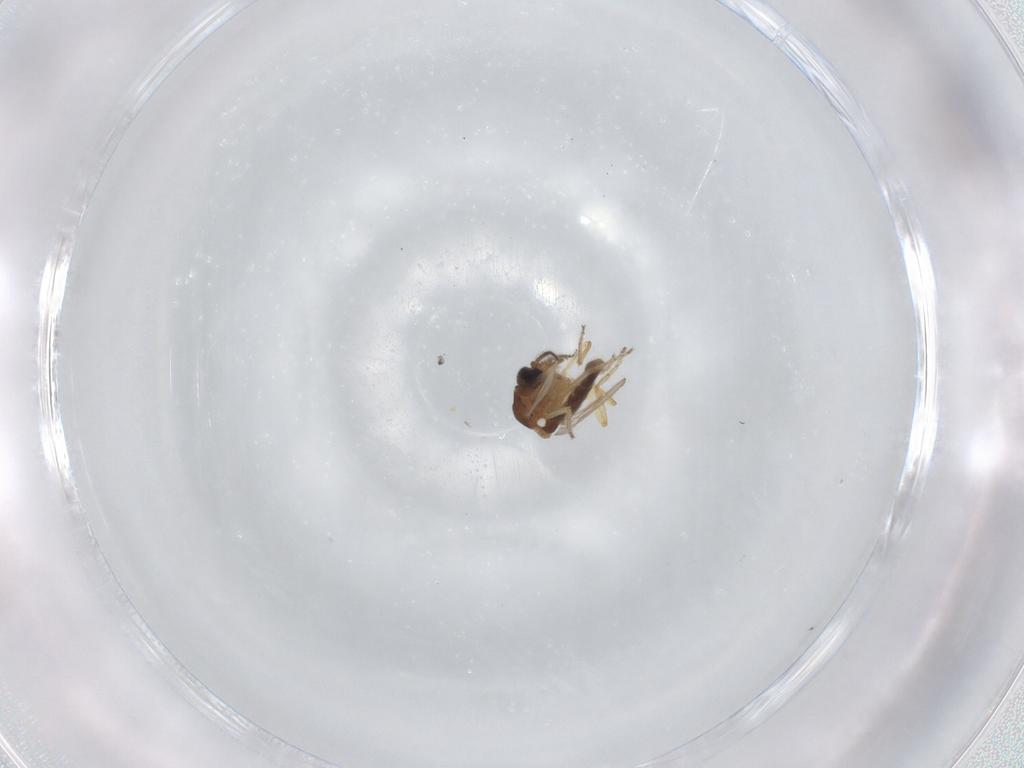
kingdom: Animalia
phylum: Arthropoda
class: Insecta
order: Diptera
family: Ceratopogonidae
